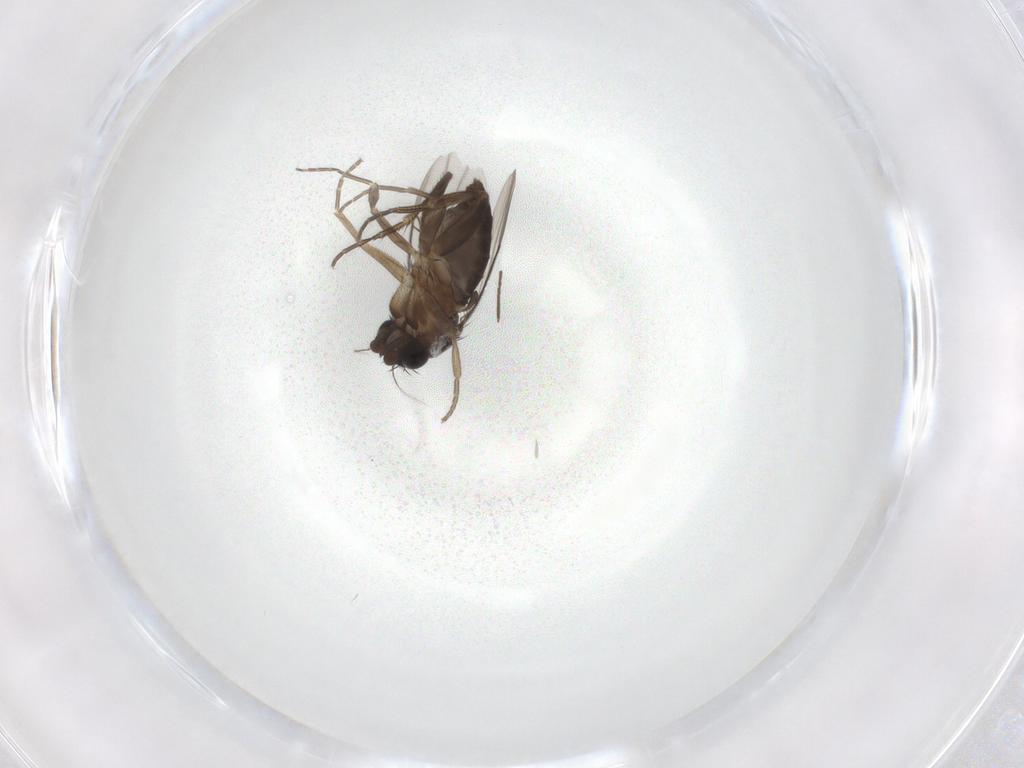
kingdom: Animalia
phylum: Arthropoda
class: Insecta
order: Diptera
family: Phoridae
